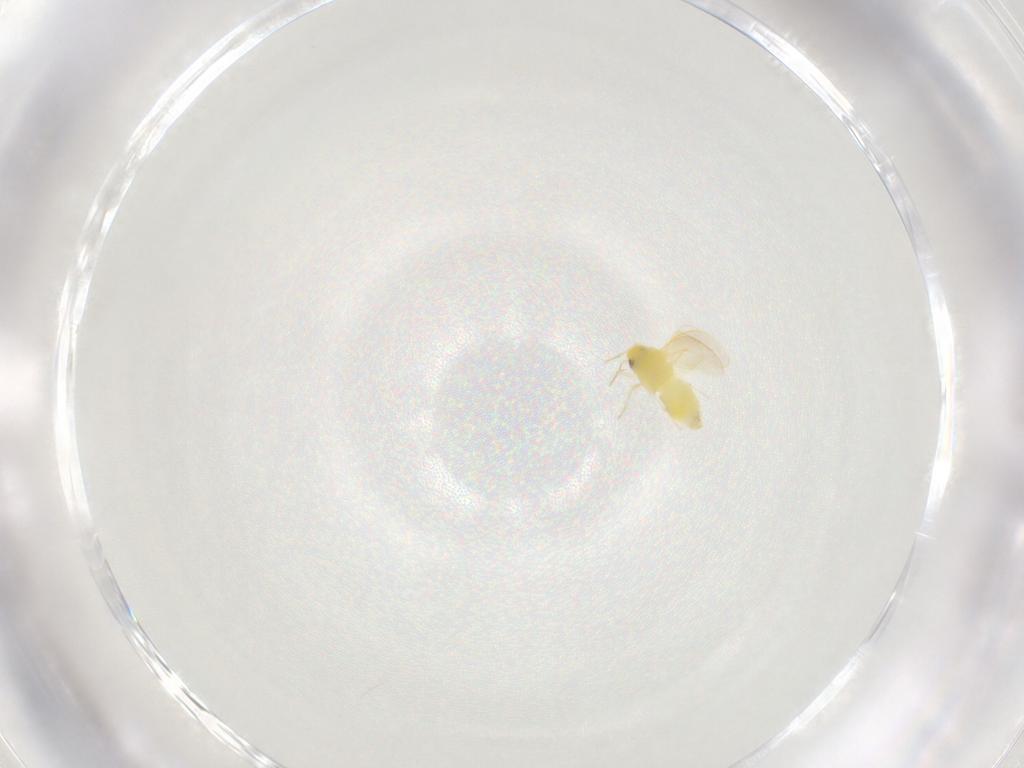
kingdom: Animalia
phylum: Arthropoda
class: Insecta
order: Hemiptera
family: Aleyrodidae
